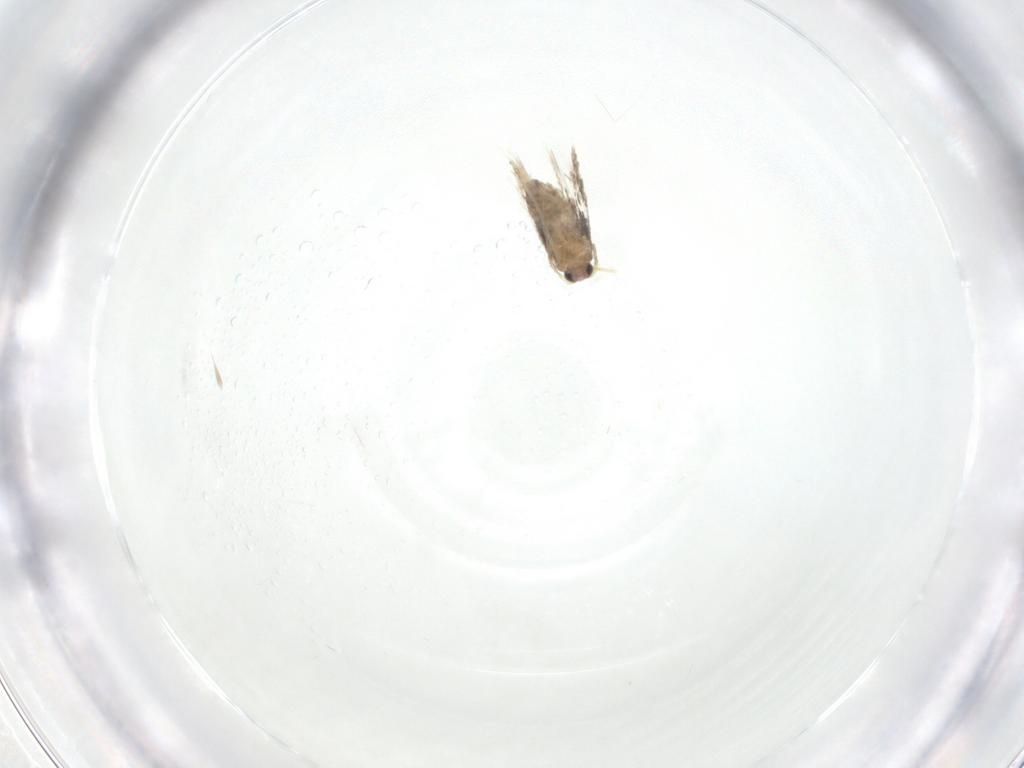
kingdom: Animalia
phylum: Arthropoda
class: Insecta
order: Lepidoptera
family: Nepticulidae
